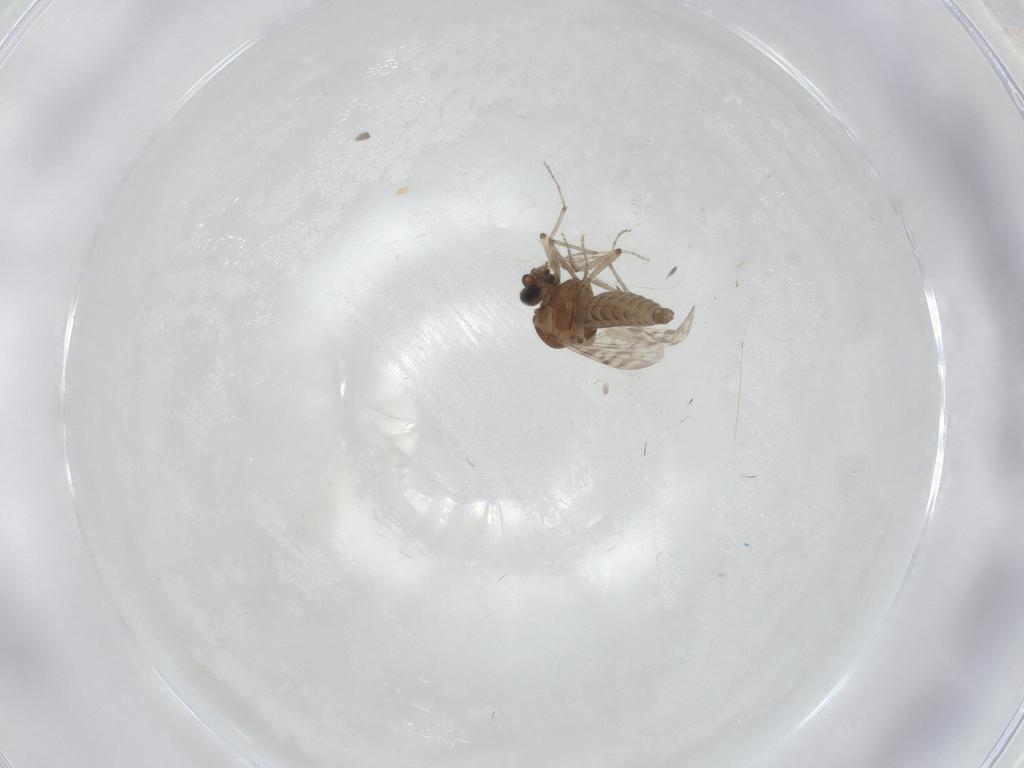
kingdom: Animalia
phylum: Arthropoda
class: Insecta
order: Diptera
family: Chironomidae
